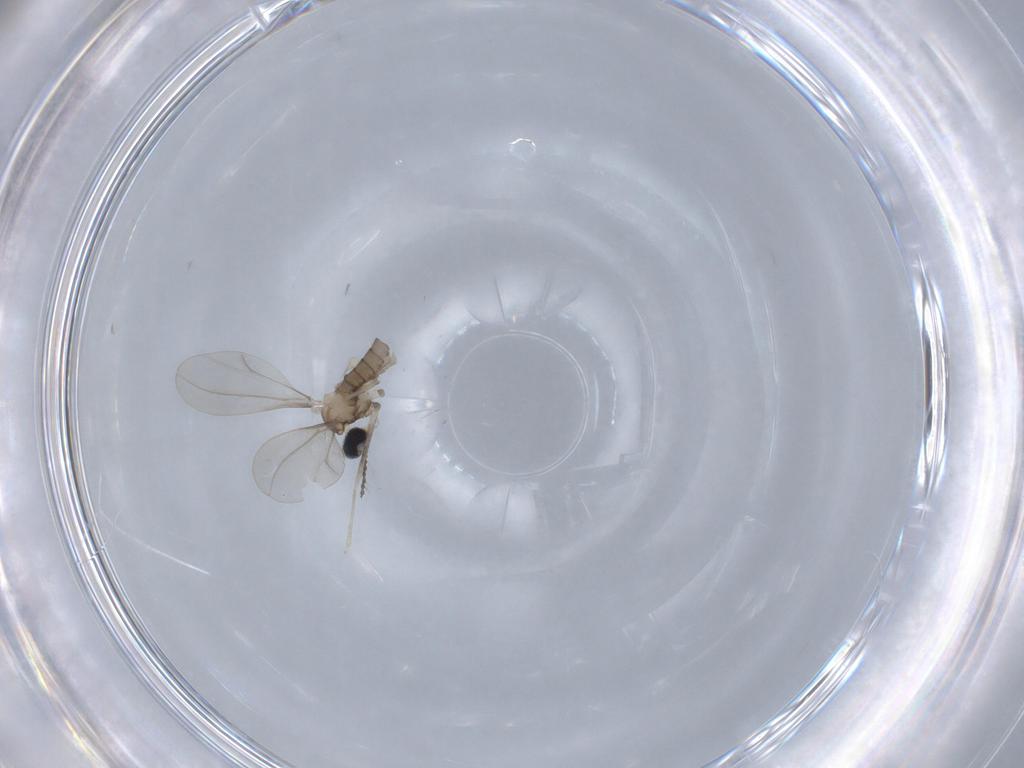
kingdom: Animalia
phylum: Arthropoda
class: Insecta
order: Diptera
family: Cecidomyiidae
